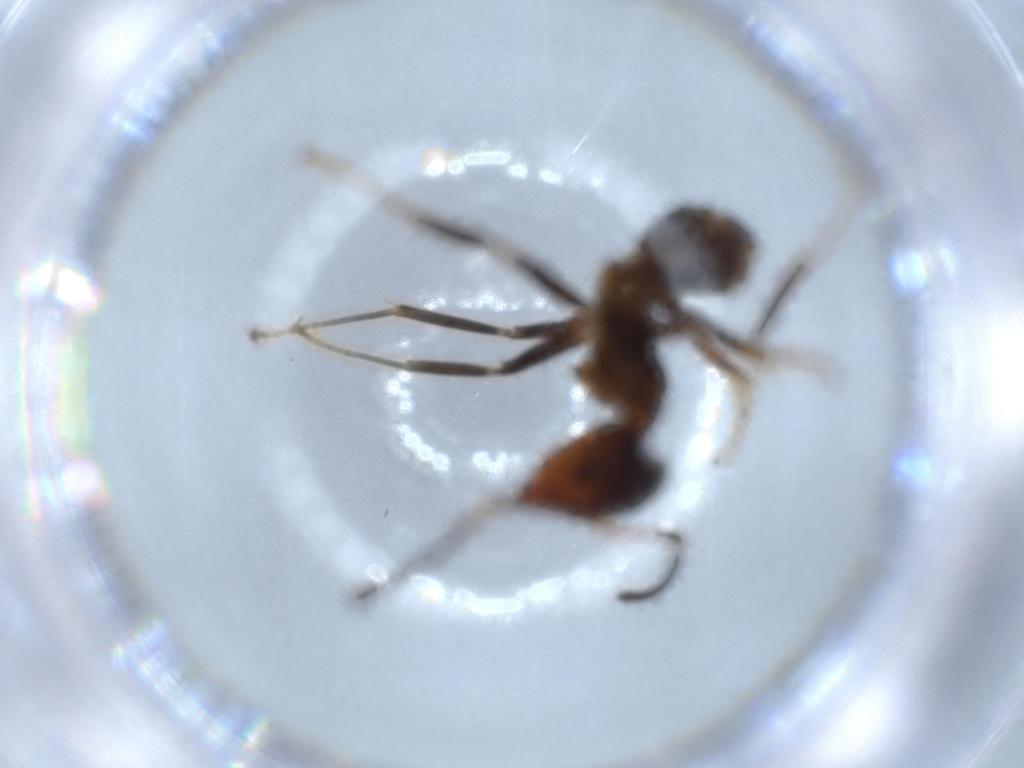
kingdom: Animalia
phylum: Arthropoda
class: Insecta
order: Hymenoptera
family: Formicidae
